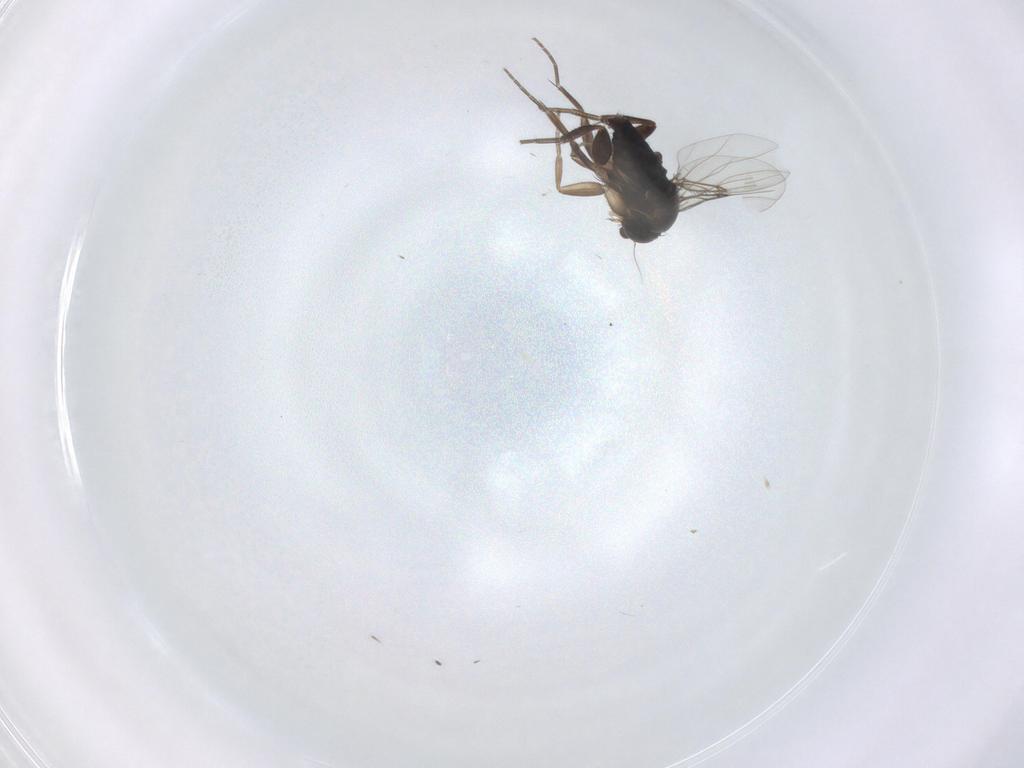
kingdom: Animalia
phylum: Arthropoda
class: Insecta
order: Diptera
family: Phoridae
